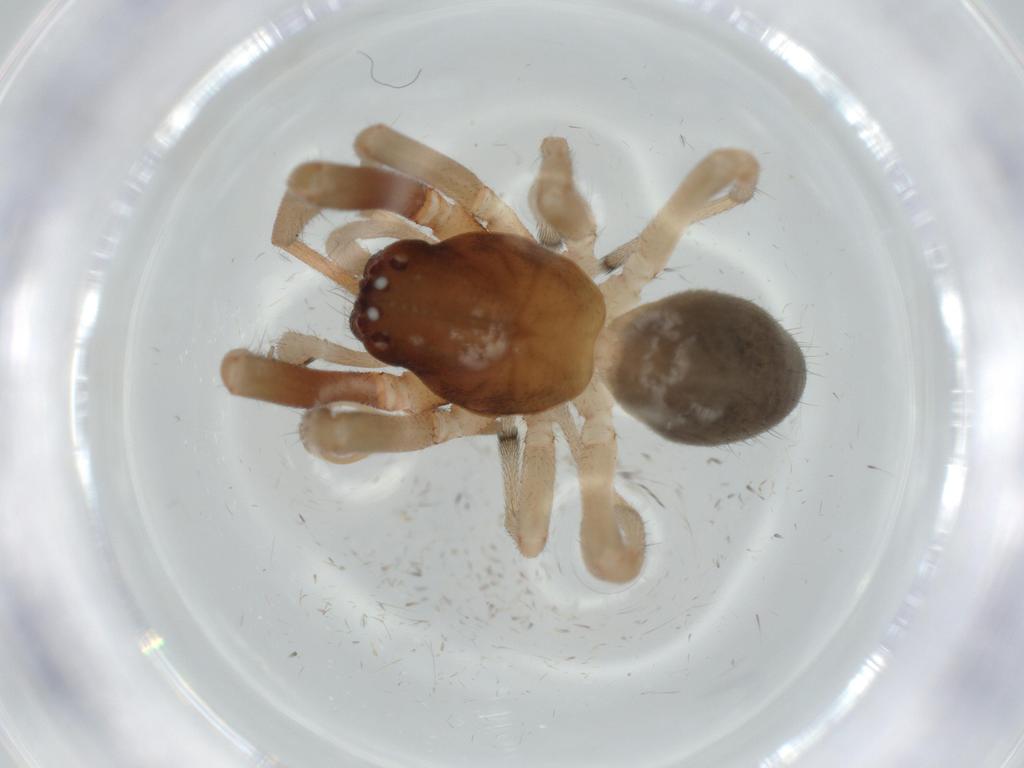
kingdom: Animalia
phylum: Arthropoda
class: Arachnida
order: Araneae
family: Trachelidae
